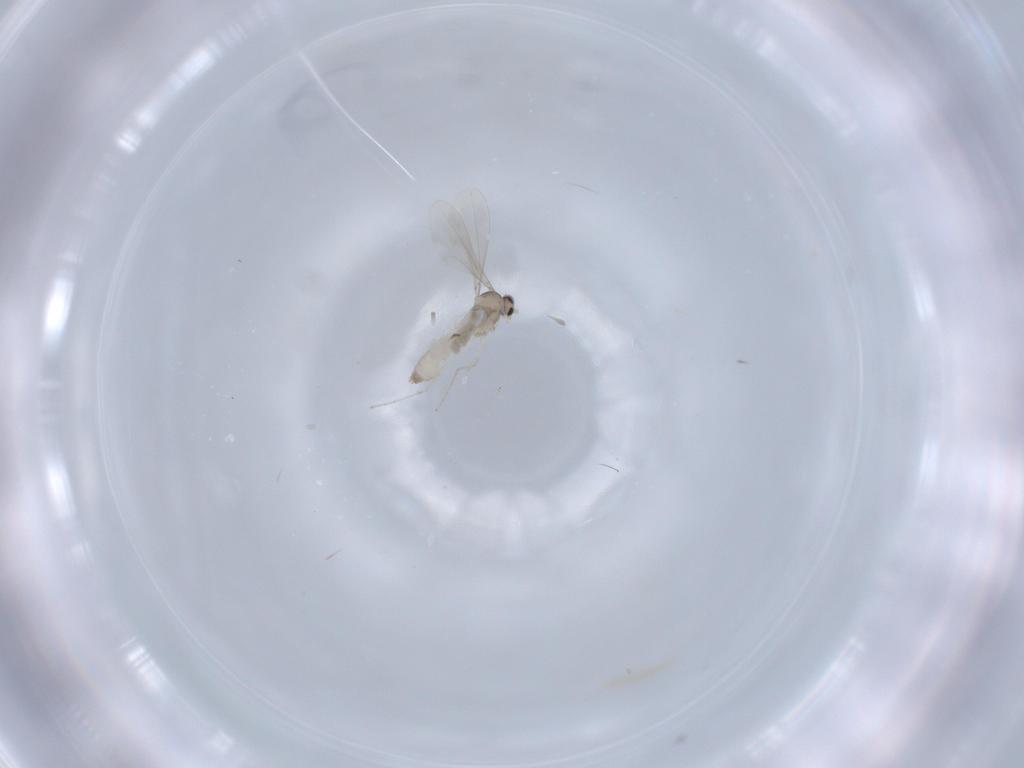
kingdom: Animalia
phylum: Arthropoda
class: Insecta
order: Diptera
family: Cecidomyiidae
